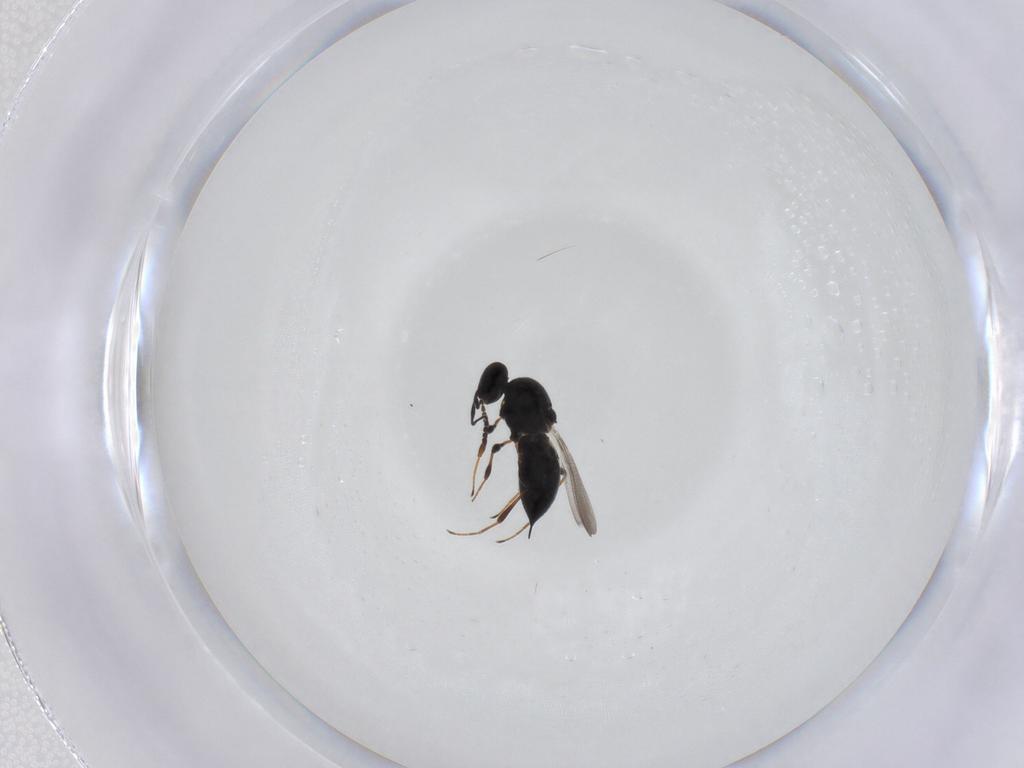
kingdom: Animalia
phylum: Arthropoda
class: Insecta
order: Hymenoptera
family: Platygastridae
